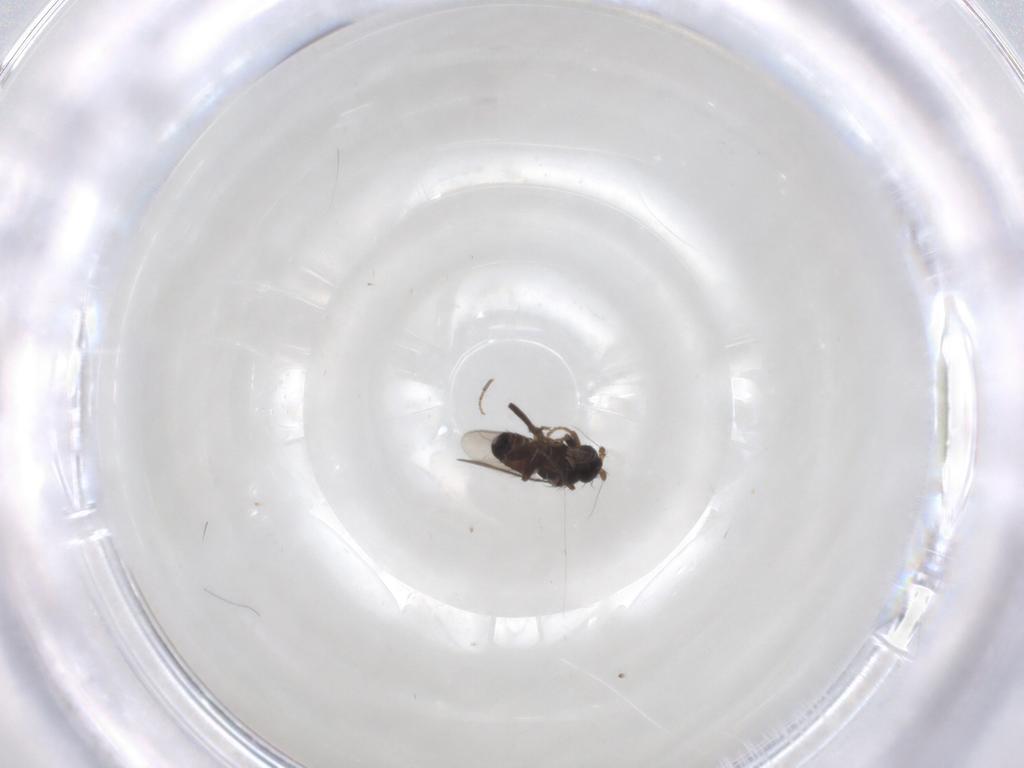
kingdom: Animalia
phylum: Arthropoda
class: Insecta
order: Diptera
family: Sphaeroceridae
